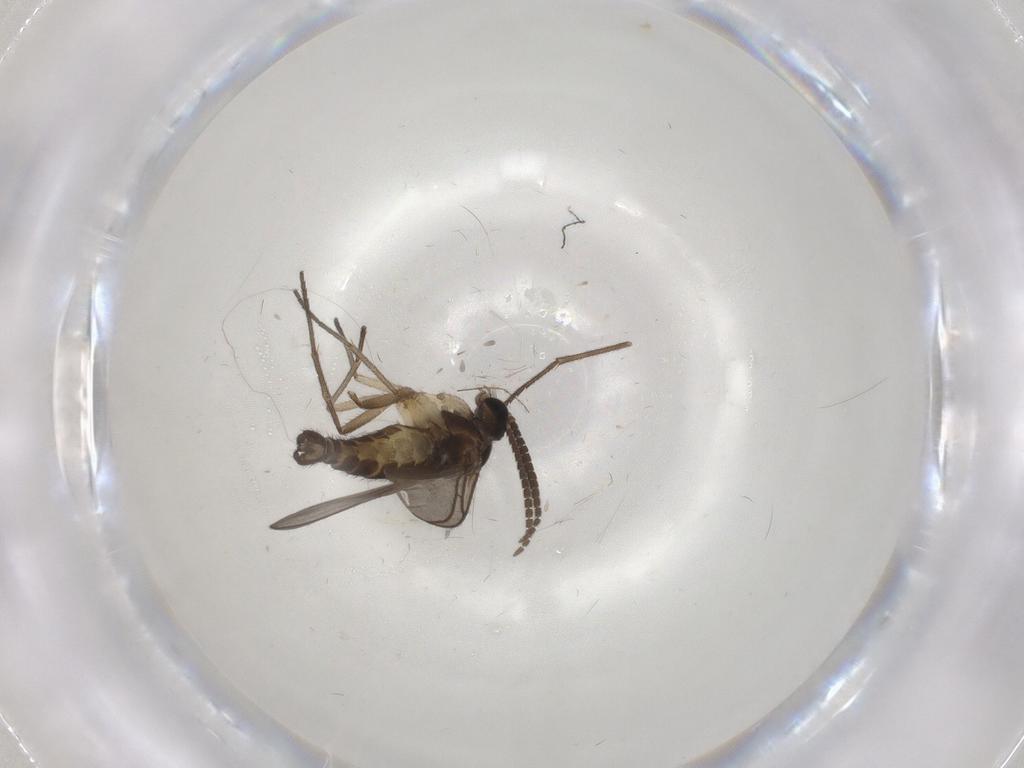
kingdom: Animalia
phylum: Arthropoda
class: Insecta
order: Diptera
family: Sciaridae
